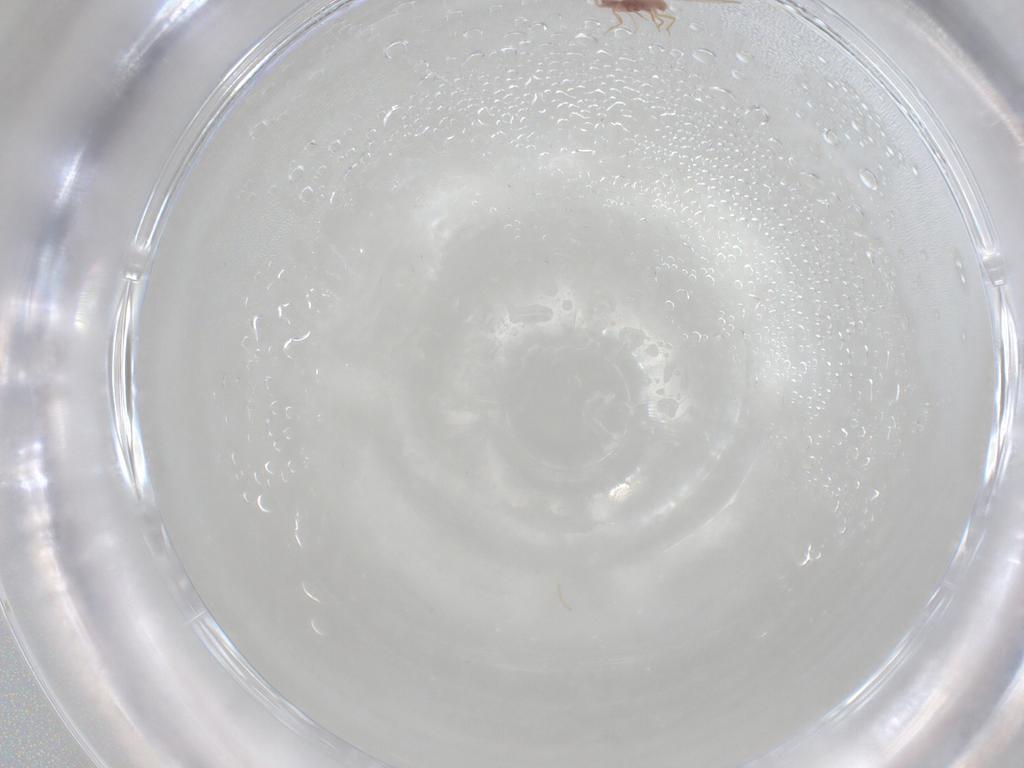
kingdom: Animalia
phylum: Arthropoda
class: Insecta
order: Hemiptera
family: Pseudococcidae
